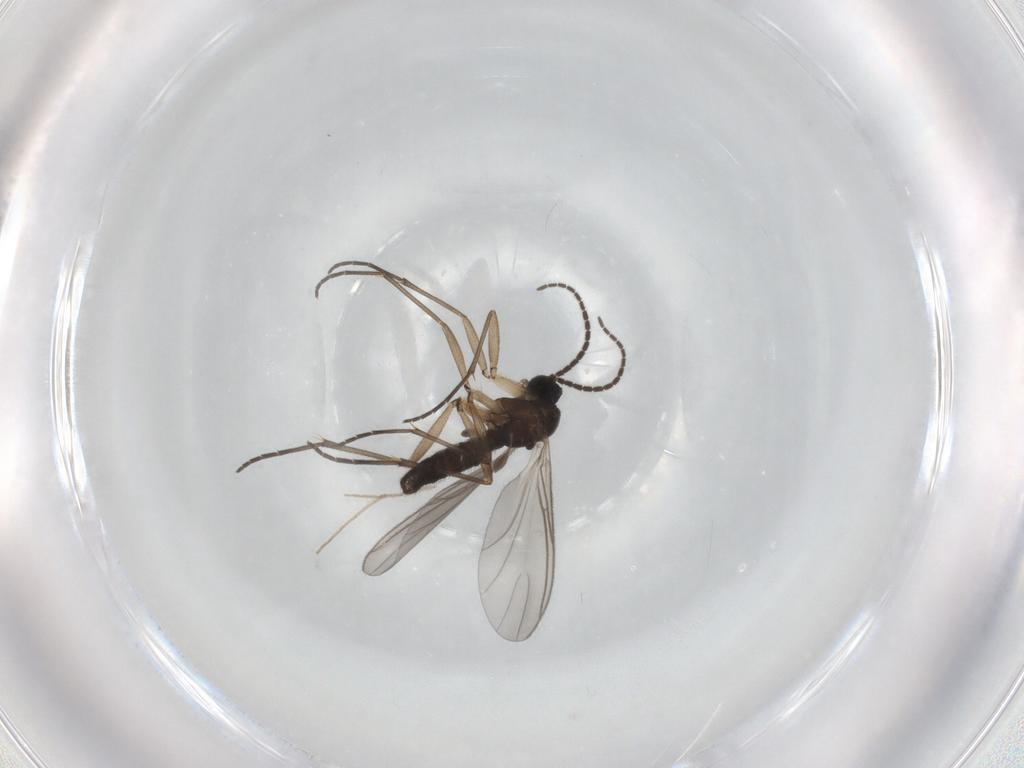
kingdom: Animalia
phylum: Arthropoda
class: Insecta
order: Diptera
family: Sciaridae
